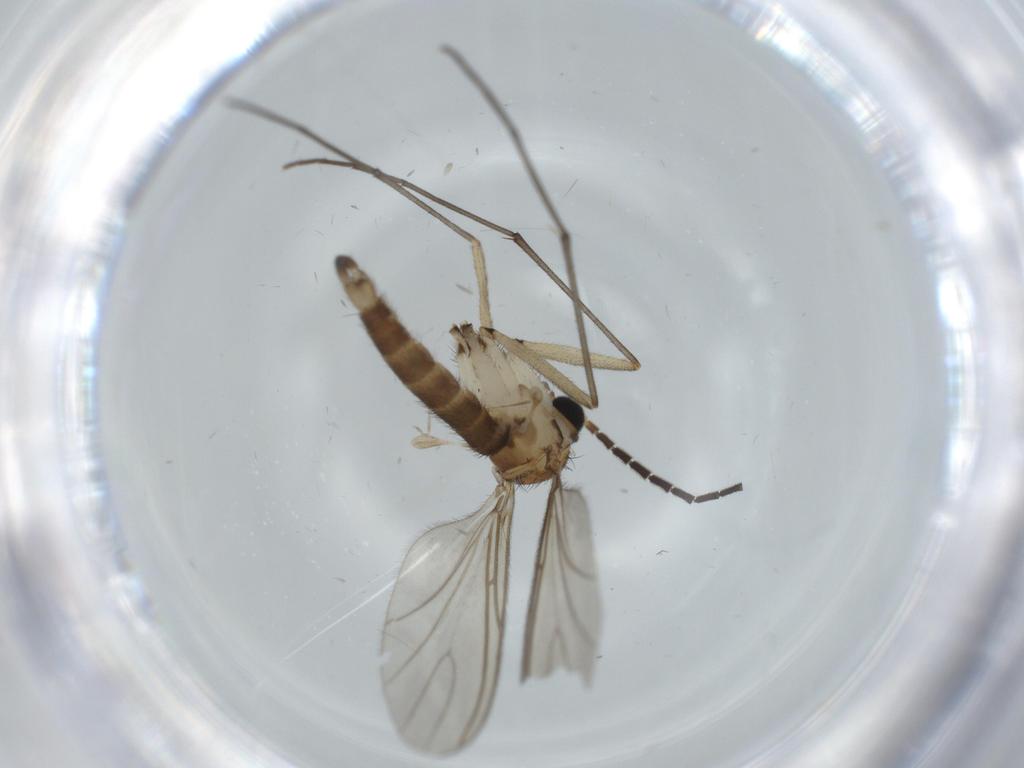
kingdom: Animalia
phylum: Arthropoda
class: Insecta
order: Diptera
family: Sciaridae
